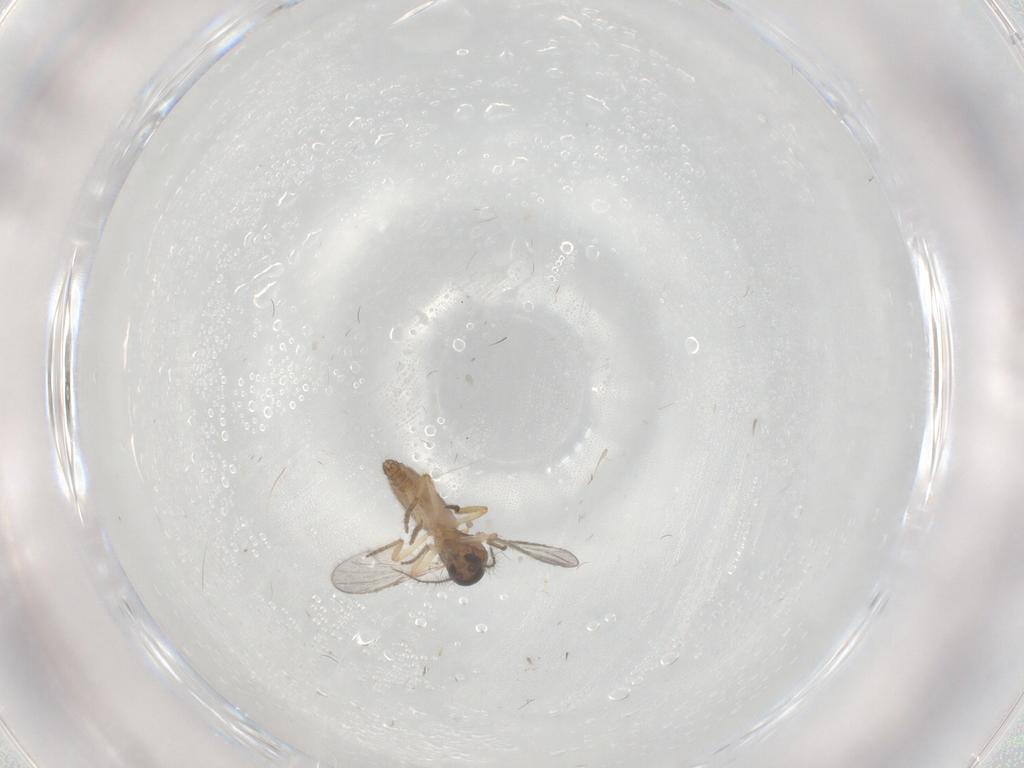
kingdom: Animalia
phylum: Arthropoda
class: Insecta
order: Diptera
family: Ceratopogonidae
